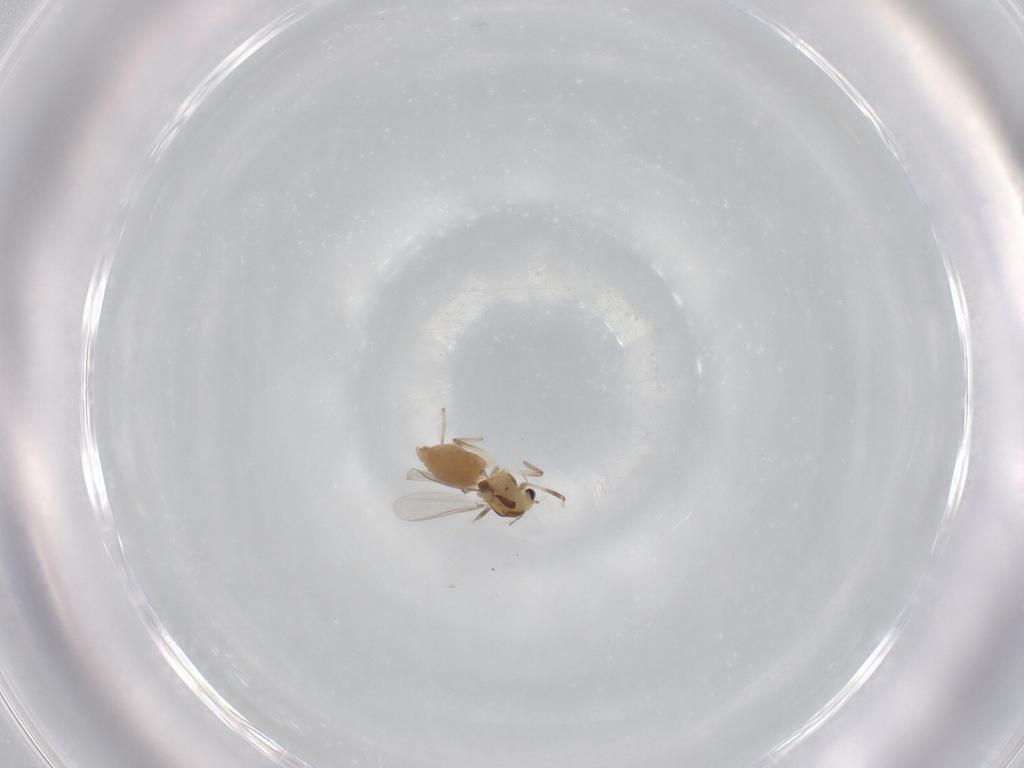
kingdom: Animalia
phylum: Arthropoda
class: Insecta
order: Diptera
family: Chironomidae
